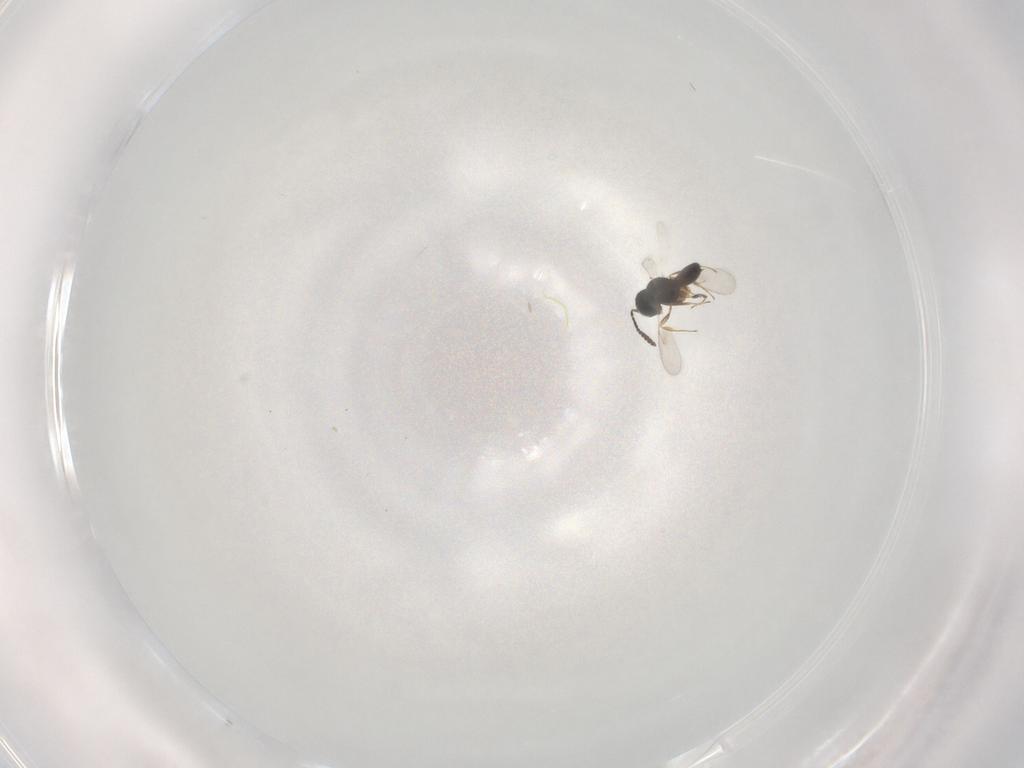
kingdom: Animalia
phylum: Arthropoda
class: Insecta
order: Hymenoptera
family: Scelionidae
